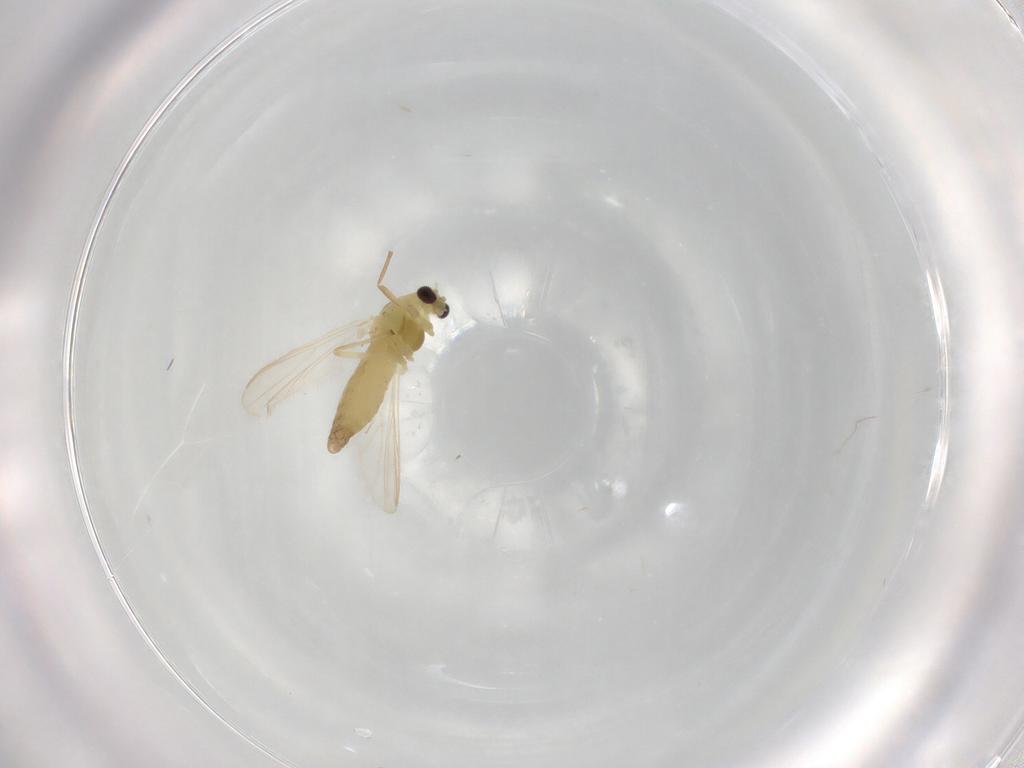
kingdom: Animalia
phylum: Arthropoda
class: Insecta
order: Diptera
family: Chironomidae
